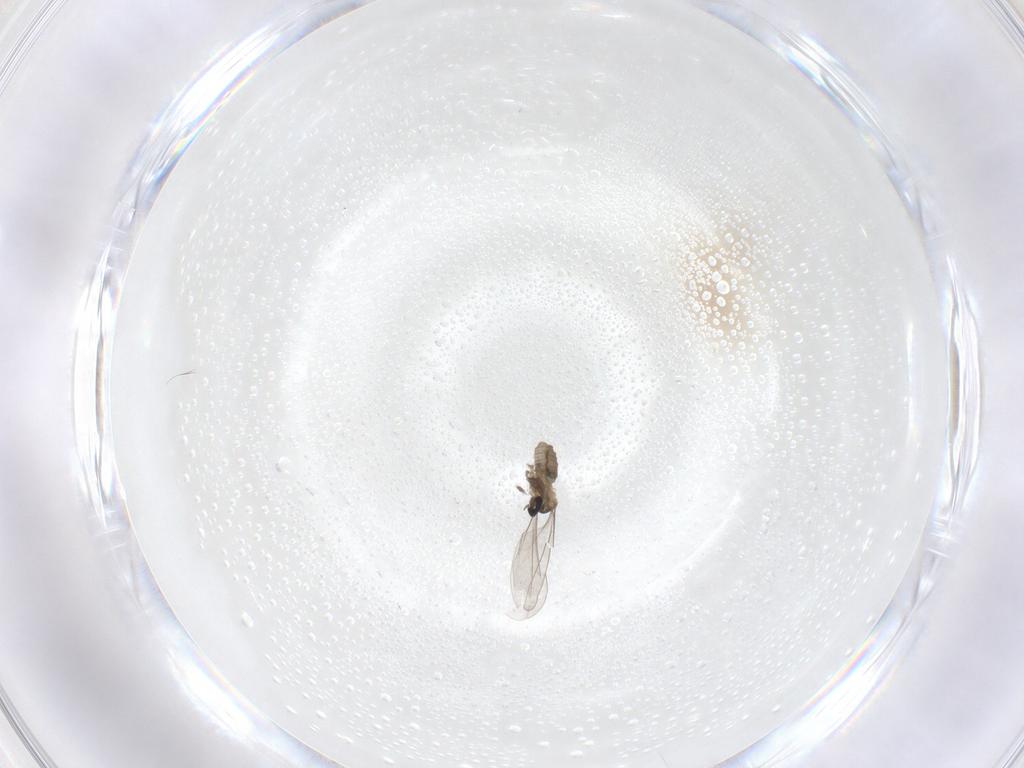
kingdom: Animalia
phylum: Arthropoda
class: Insecta
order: Diptera
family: Cecidomyiidae
